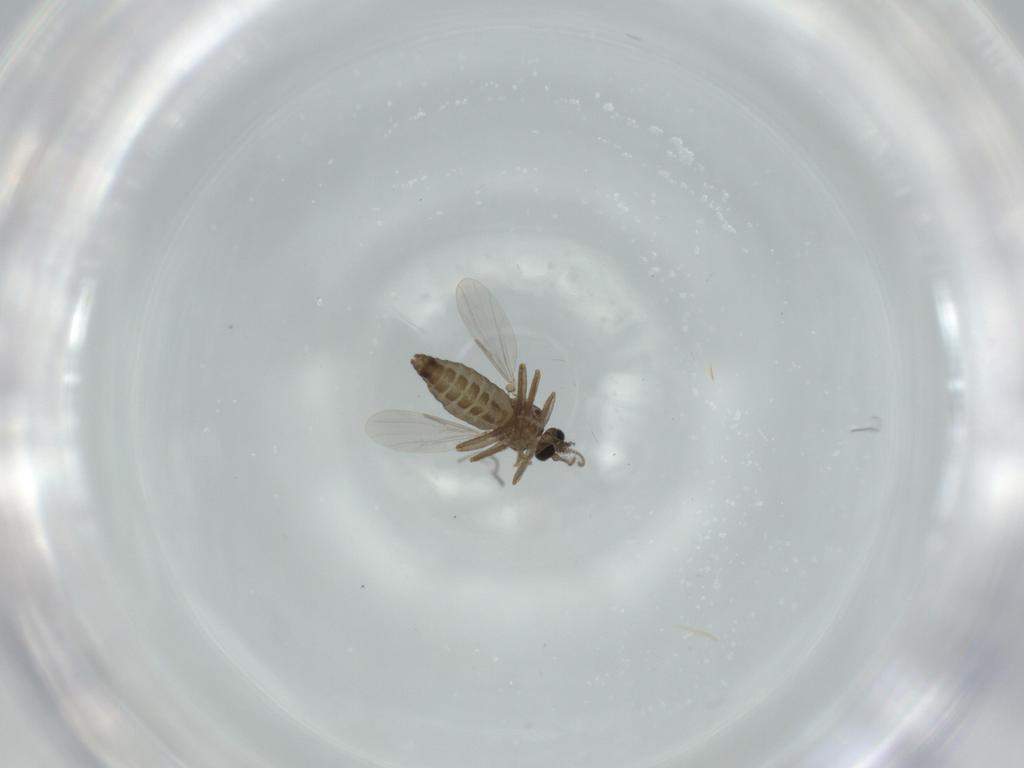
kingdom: Animalia
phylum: Arthropoda
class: Insecta
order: Diptera
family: Ceratopogonidae
